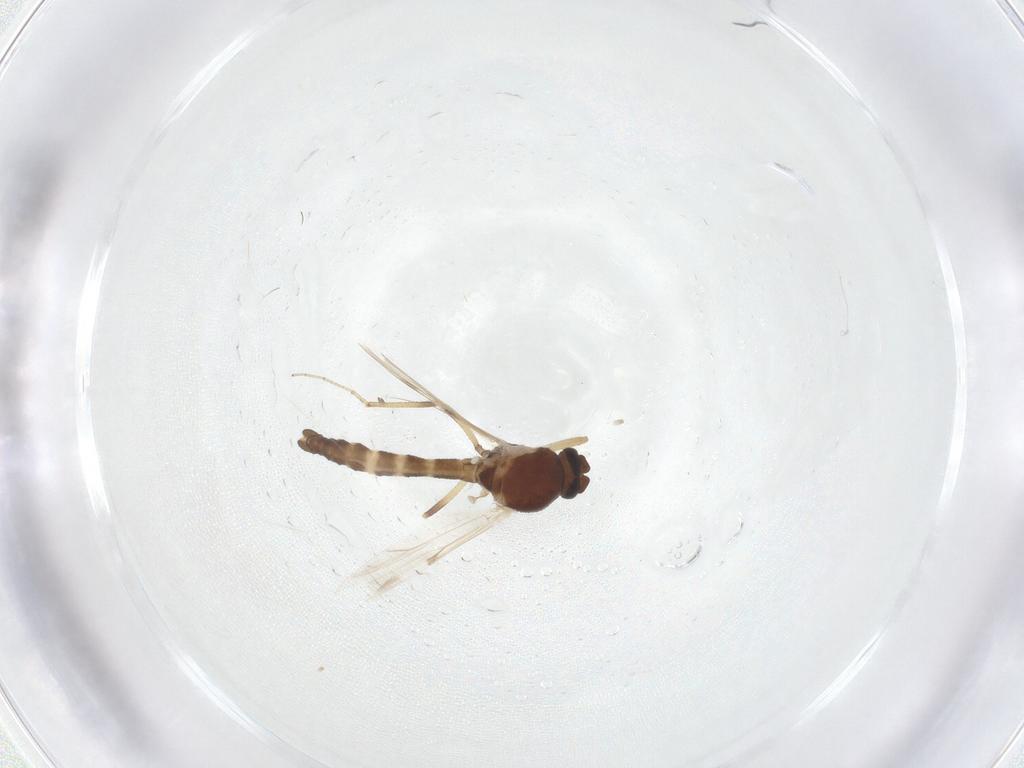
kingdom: Animalia
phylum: Arthropoda
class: Insecta
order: Diptera
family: Ceratopogonidae
